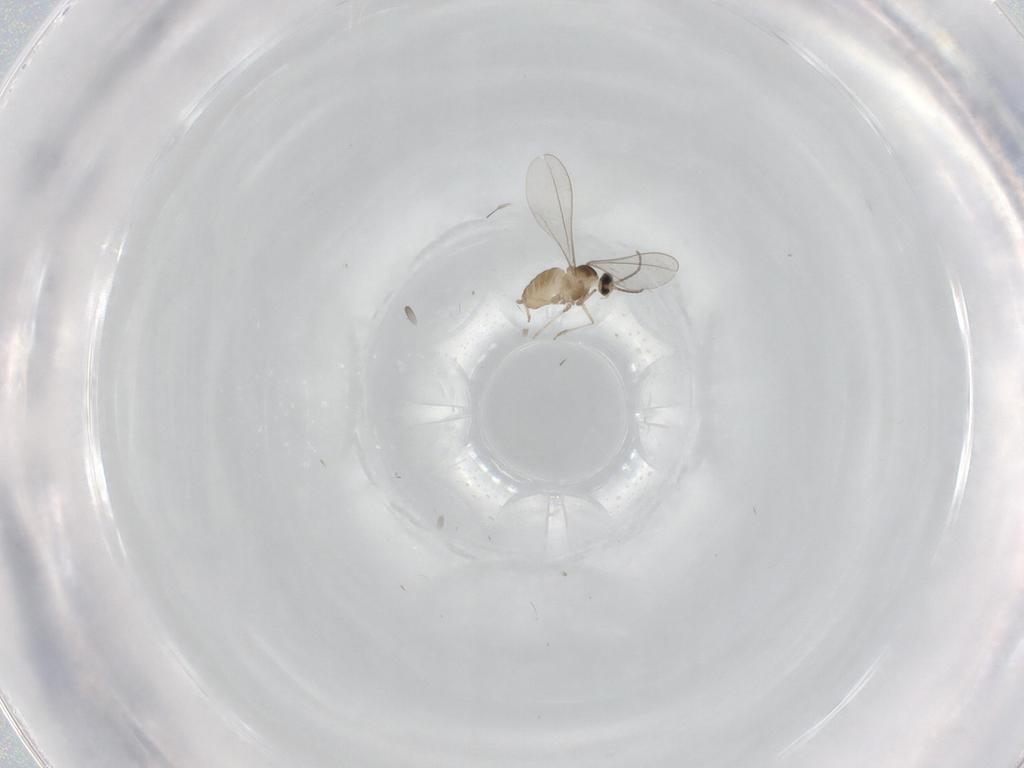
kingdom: Animalia
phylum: Arthropoda
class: Insecta
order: Diptera
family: Cecidomyiidae
